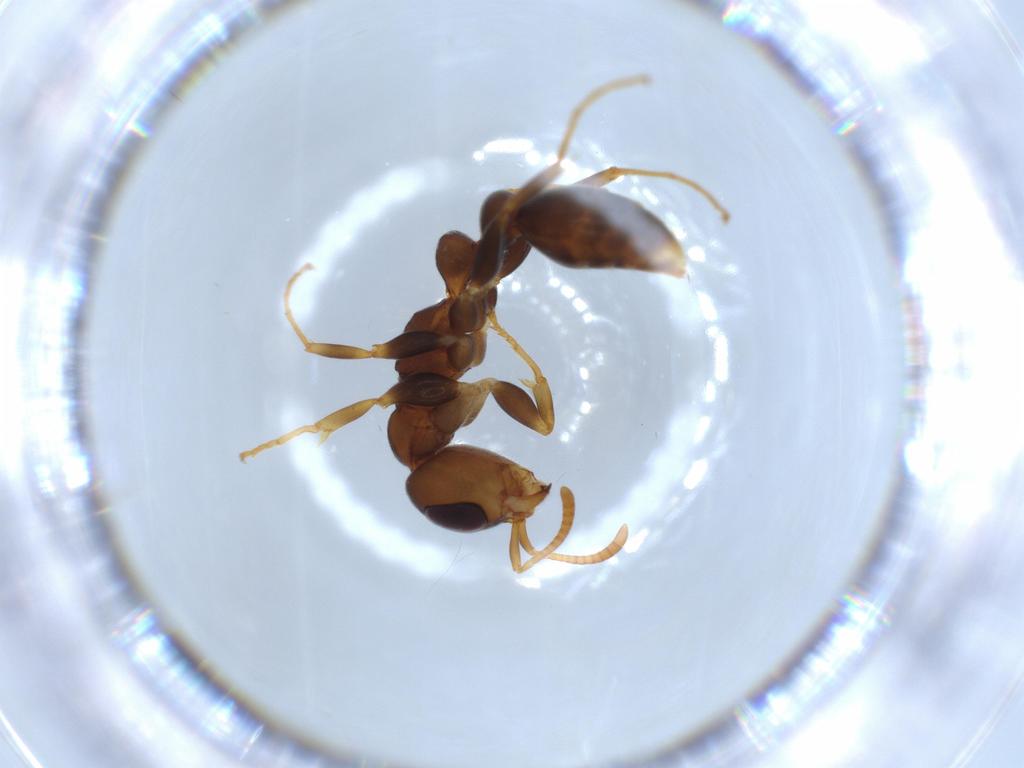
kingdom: Animalia
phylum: Arthropoda
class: Insecta
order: Hymenoptera
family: Formicidae
